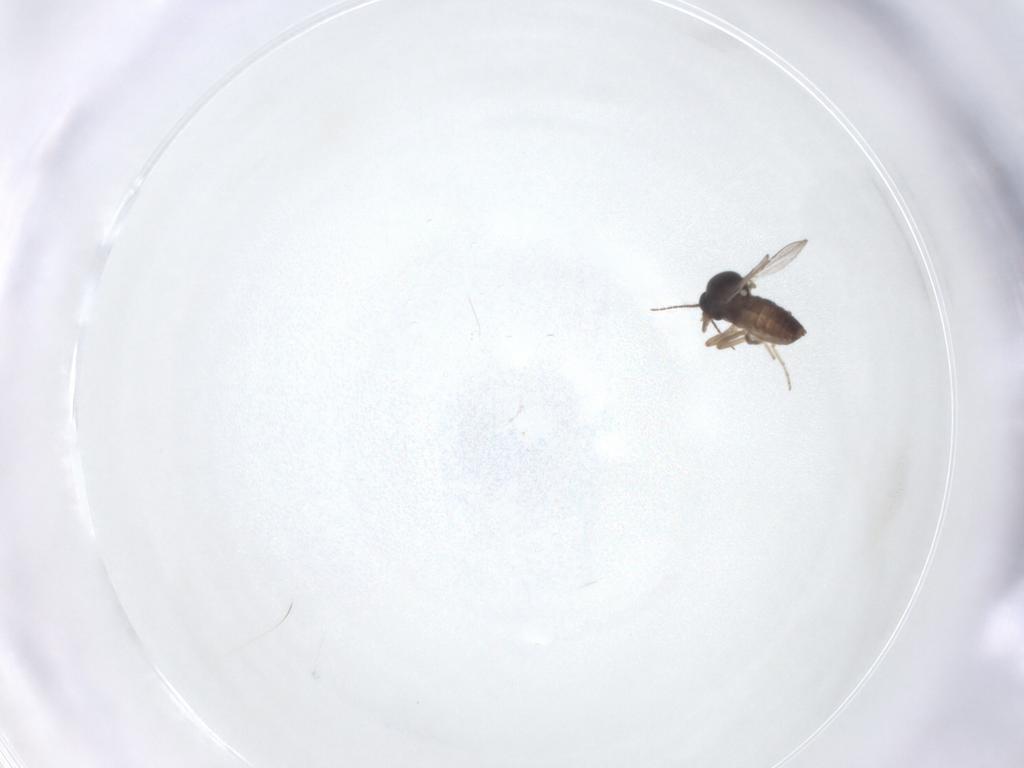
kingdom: Animalia
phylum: Arthropoda
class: Insecta
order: Diptera
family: Ceratopogonidae
